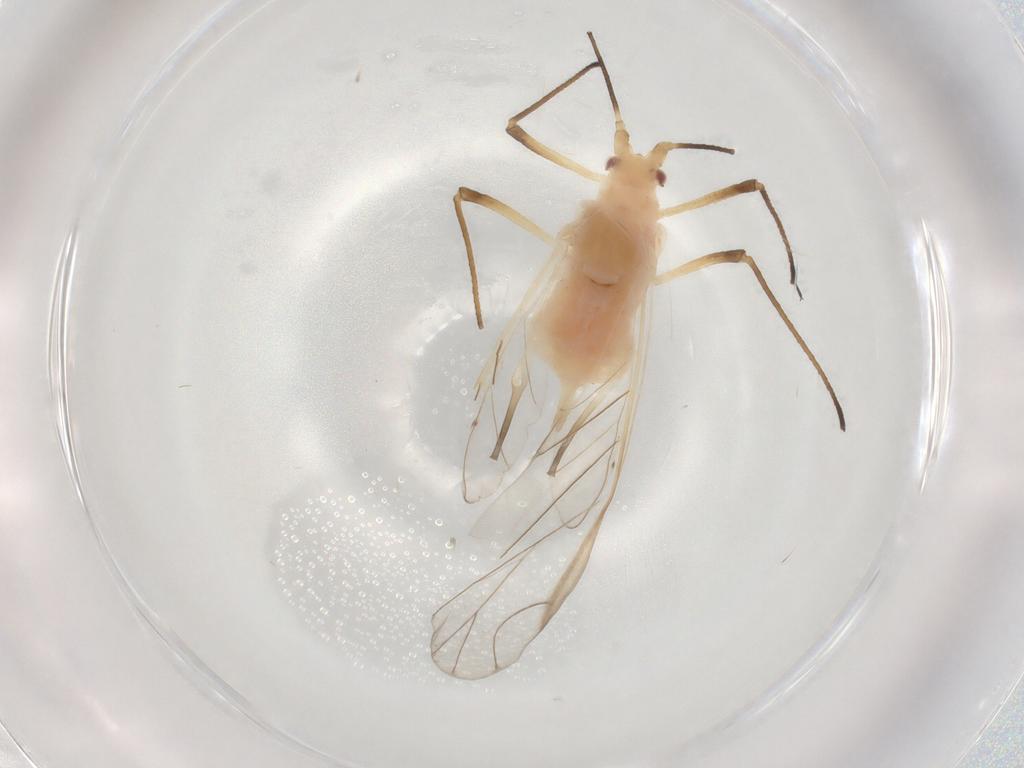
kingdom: Animalia
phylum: Arthropoda
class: Insecta
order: Hemiptera
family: Aphididae
